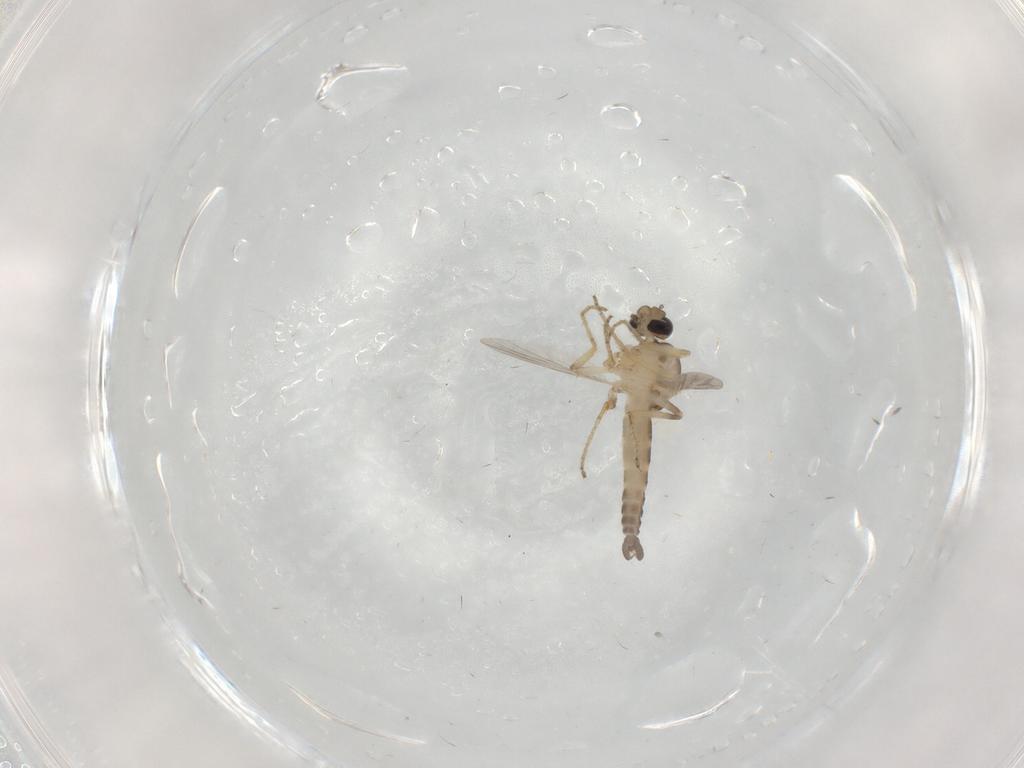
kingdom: Animalia
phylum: Arthropoda
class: Insecta
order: Diptera
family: Ceratopogonidae
